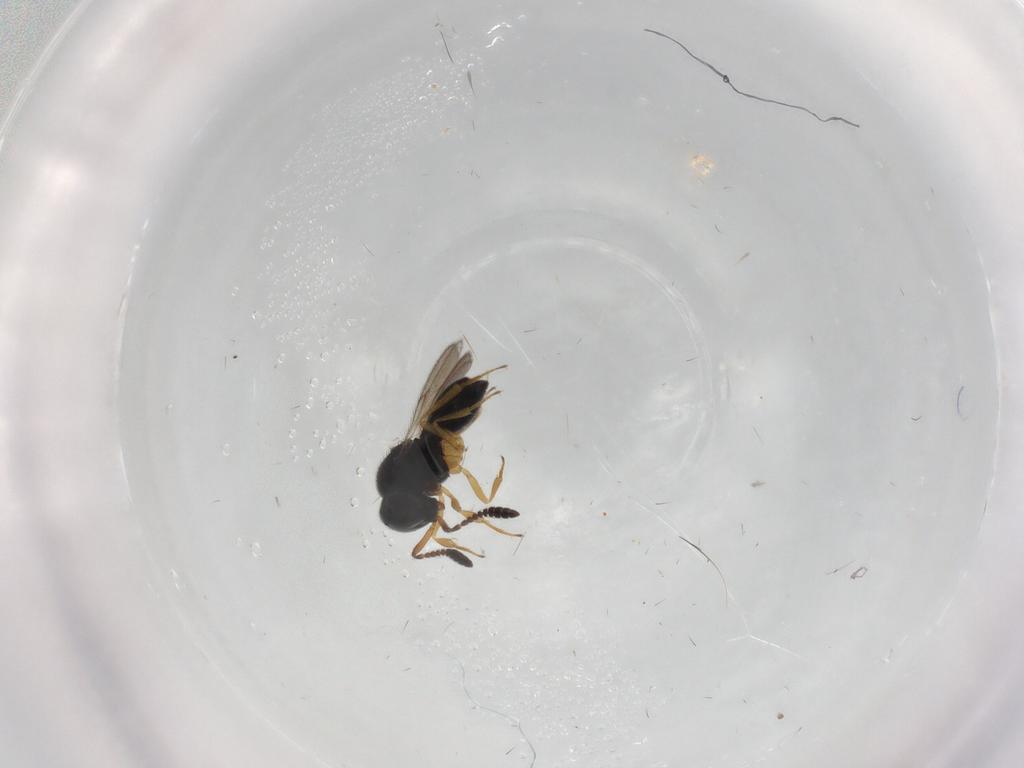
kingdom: Animalia
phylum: Arthropoda
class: Insecta
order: Hymenoptera
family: Scelionidae
